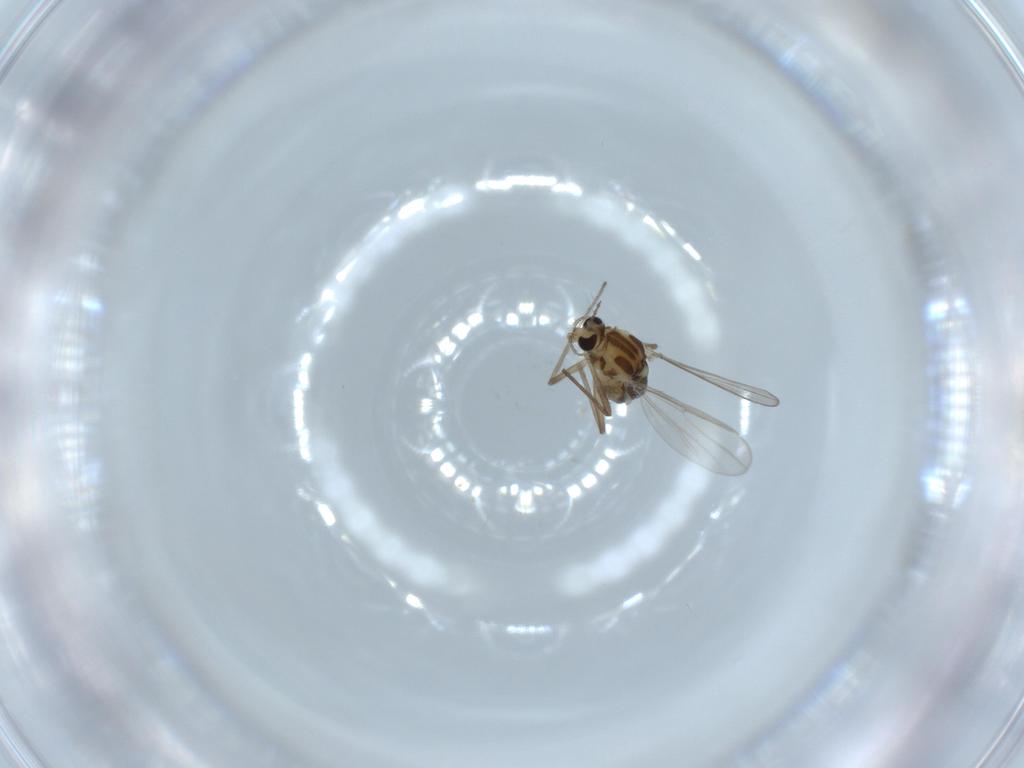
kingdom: Animalia
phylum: Arthropoda
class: Insecta
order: Diptera
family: Chironomidae
